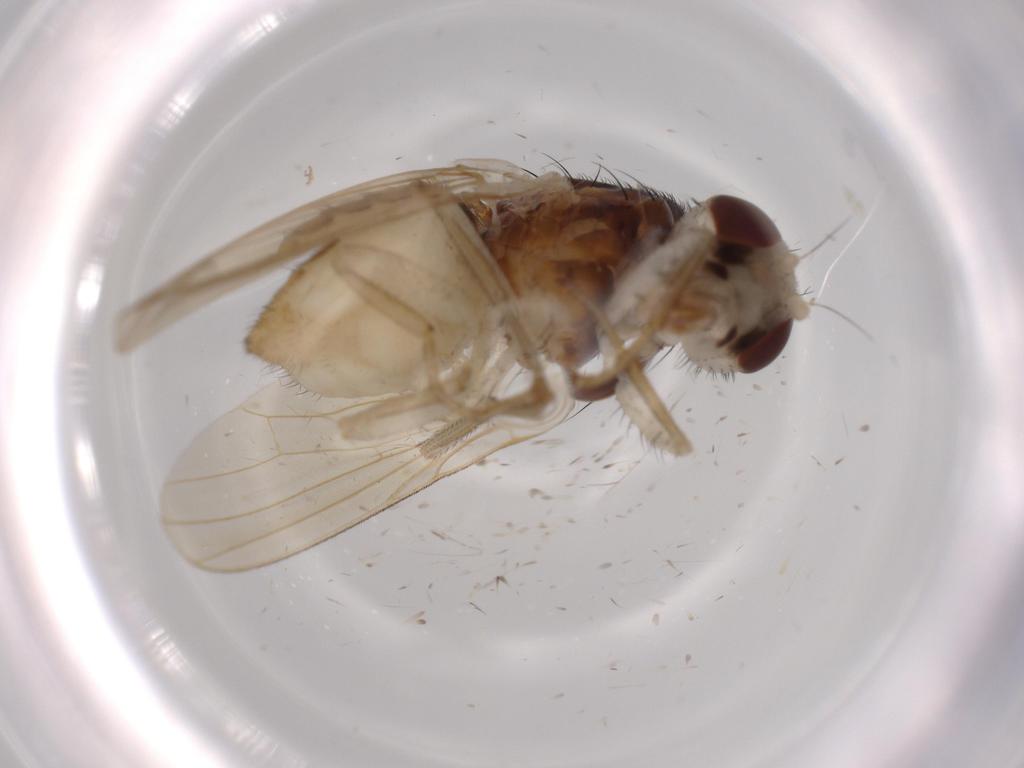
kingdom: Animalia
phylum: Arthropoda
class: Insecta
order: Diptera
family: Lauxaniidae
